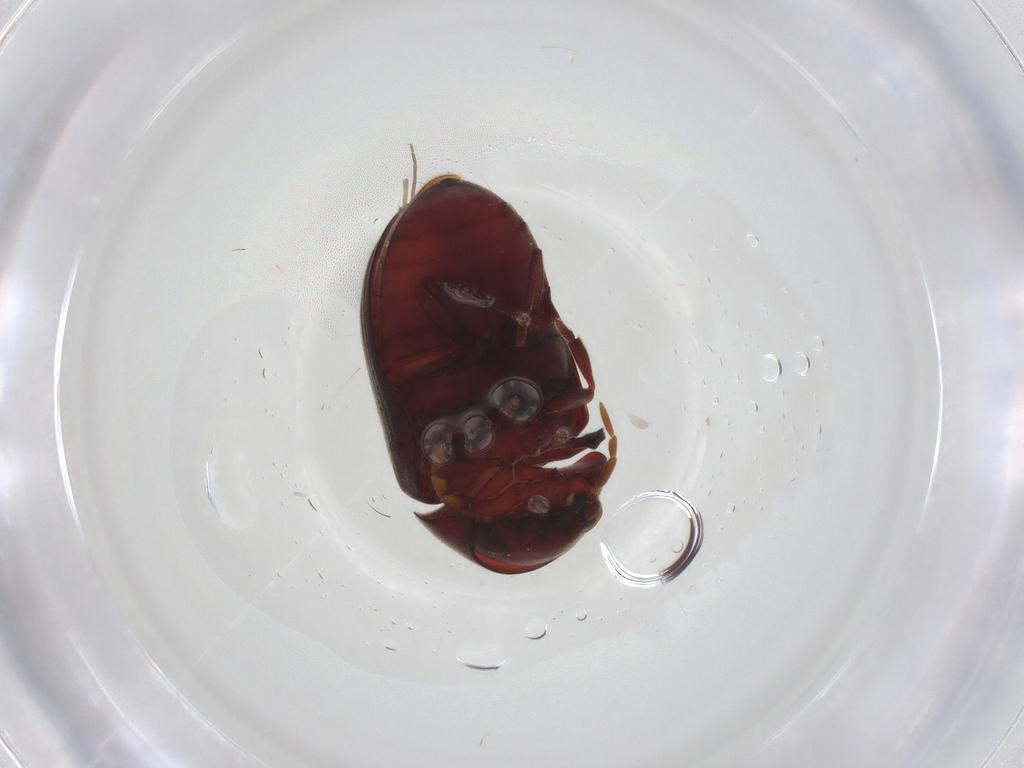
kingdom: Animalia
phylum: Arthropoda
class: Insecta
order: Coleoptera
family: Ptinidae
